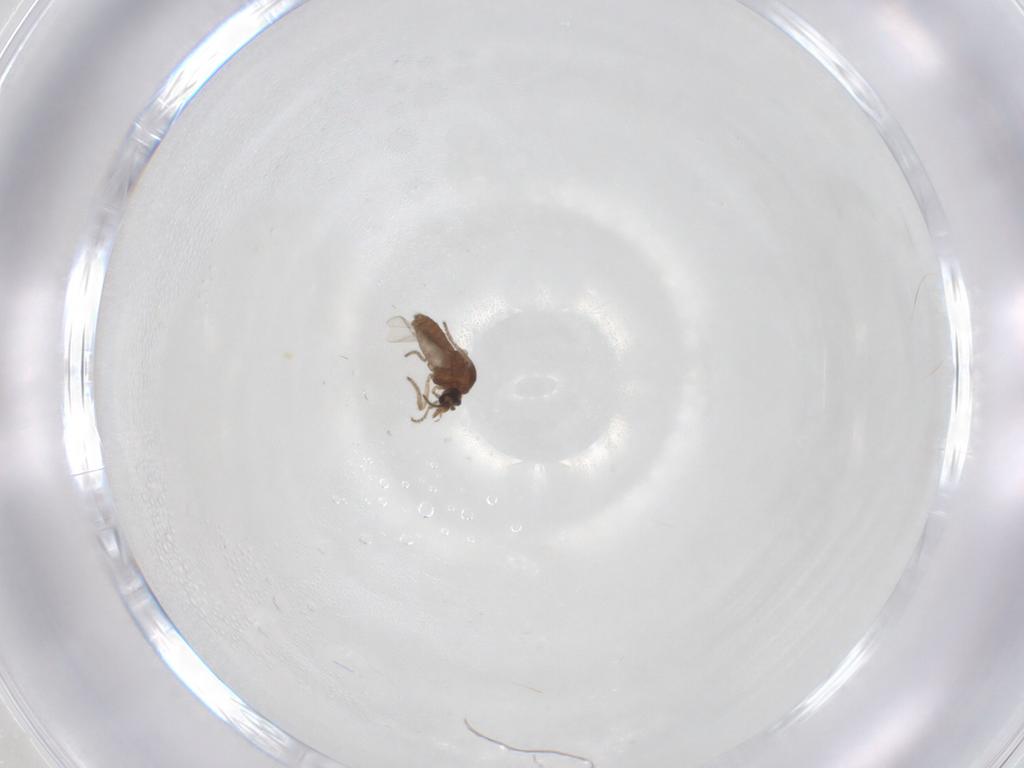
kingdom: Animalia
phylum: Arthropoda
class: Insecta
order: Diptera
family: Ceratopogonidae
